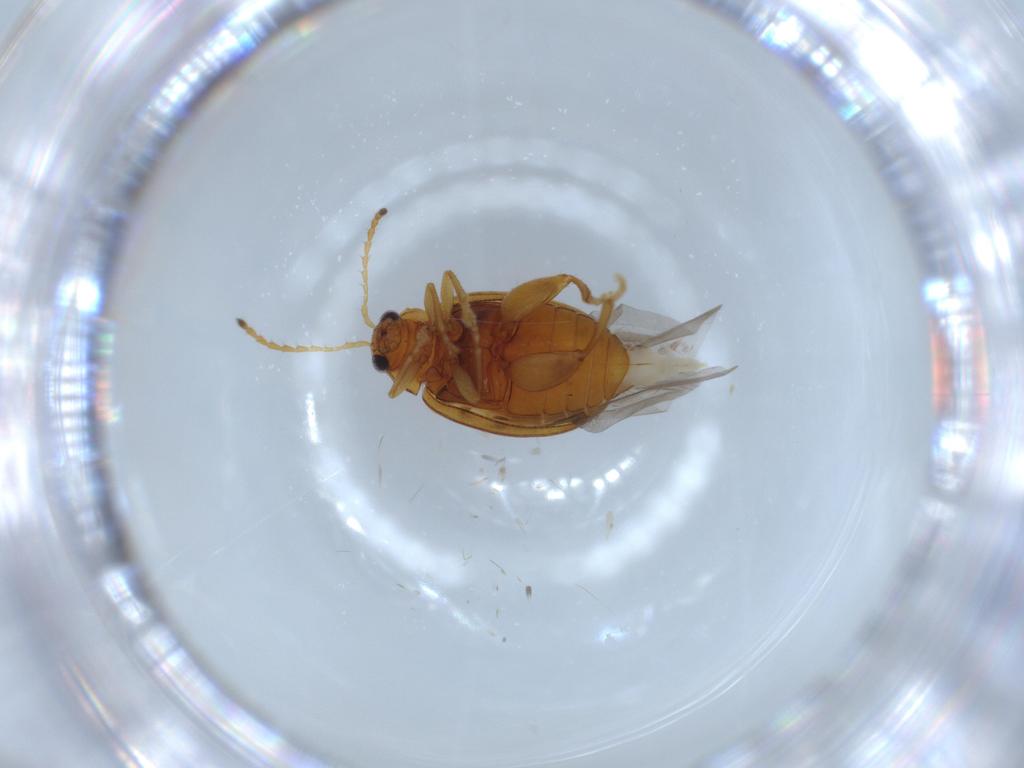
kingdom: Animalia
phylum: Arthropoda
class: Insecta
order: Coleoptera
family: Chrysomelidae
